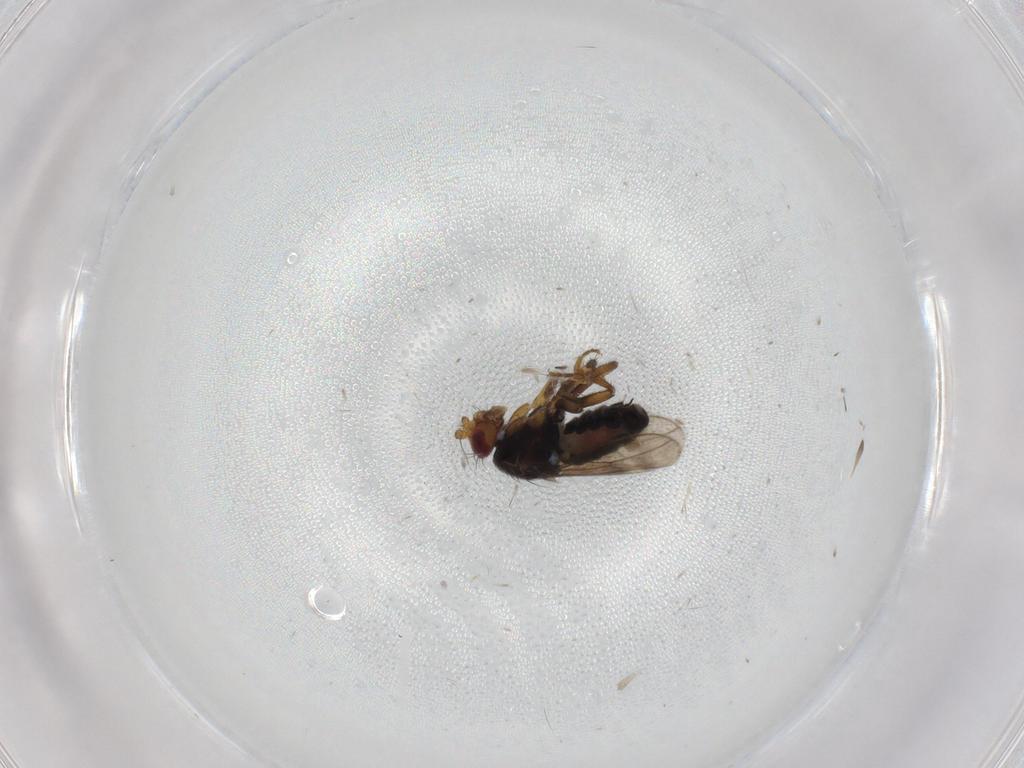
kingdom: Animalia
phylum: Arthropoda
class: Insecta
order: Diptera
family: Sphaeroceridae
